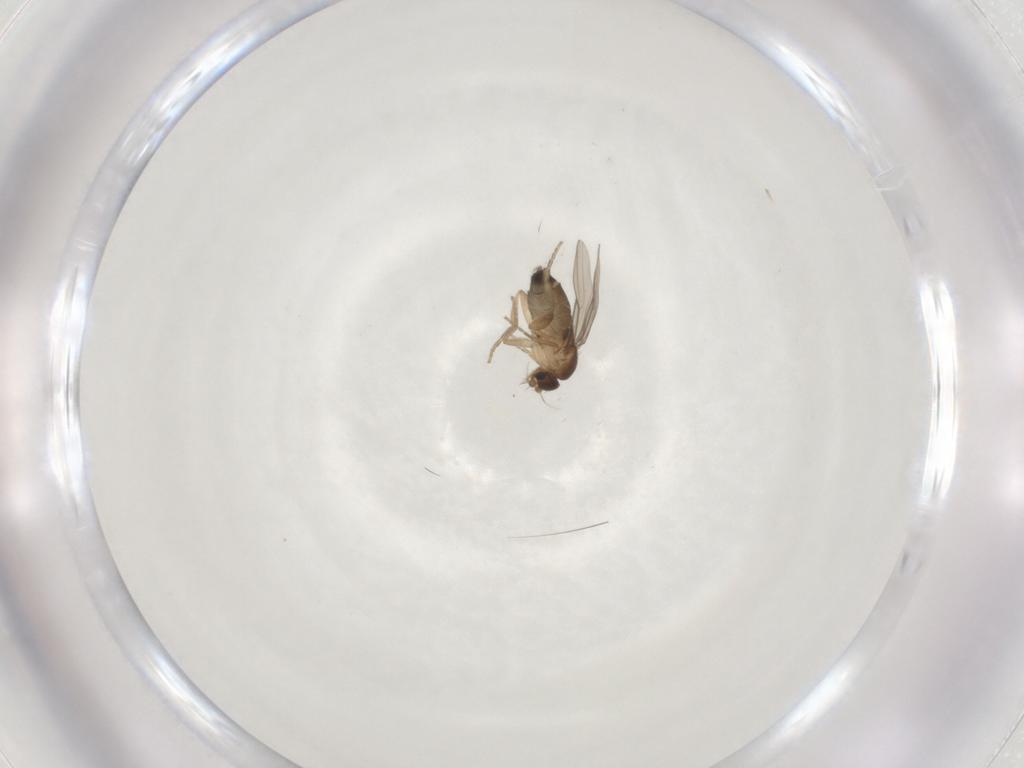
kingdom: Animalia
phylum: Arthropoda
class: Insecta
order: Diptera
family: Phoridae
